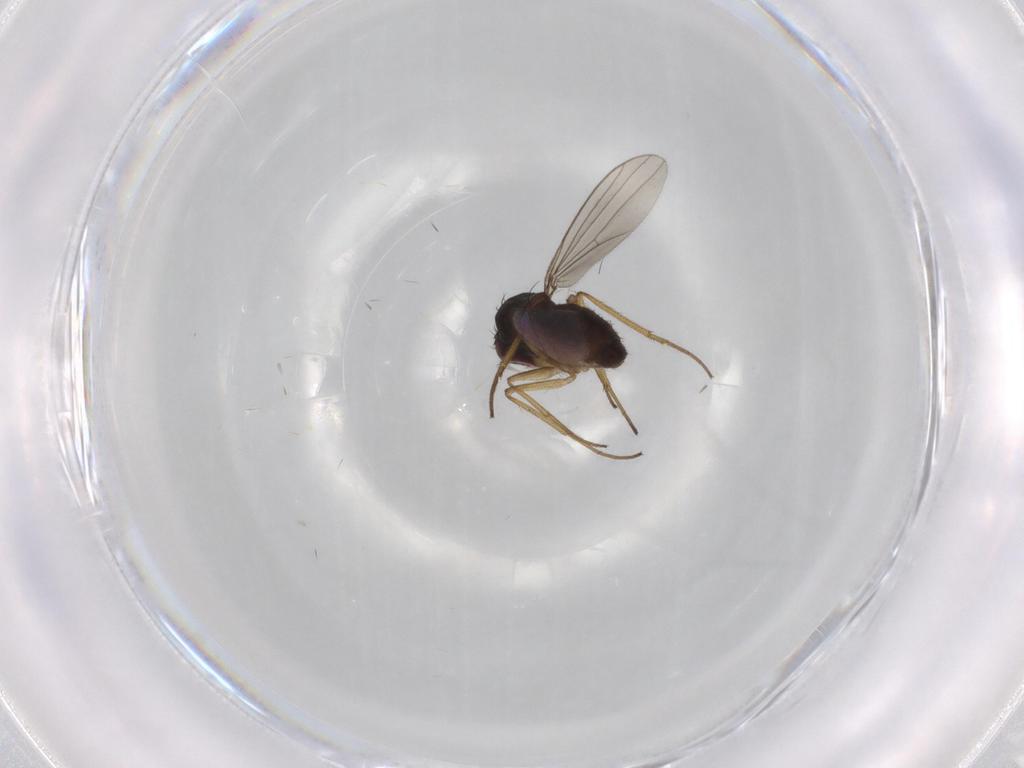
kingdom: Animalia
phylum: Arthropoda
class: Insecta
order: Diptera
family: Dolichopodidae
